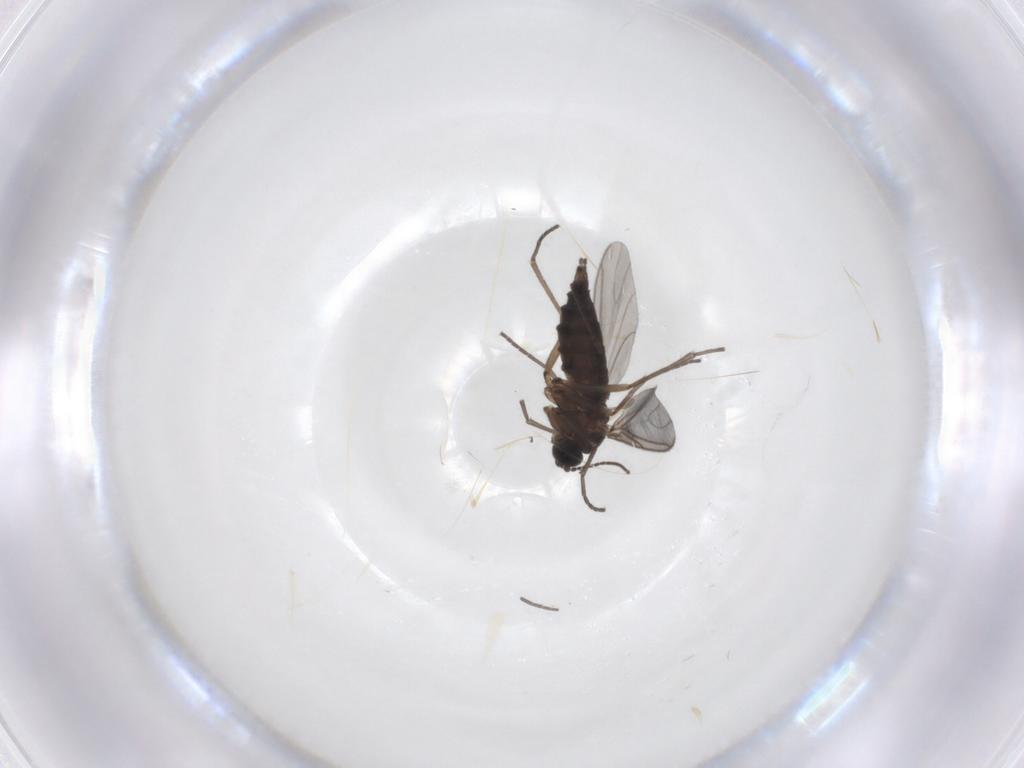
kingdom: Animalia
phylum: Arthropoda
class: Insecta
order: Diptera
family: Sciaridae
